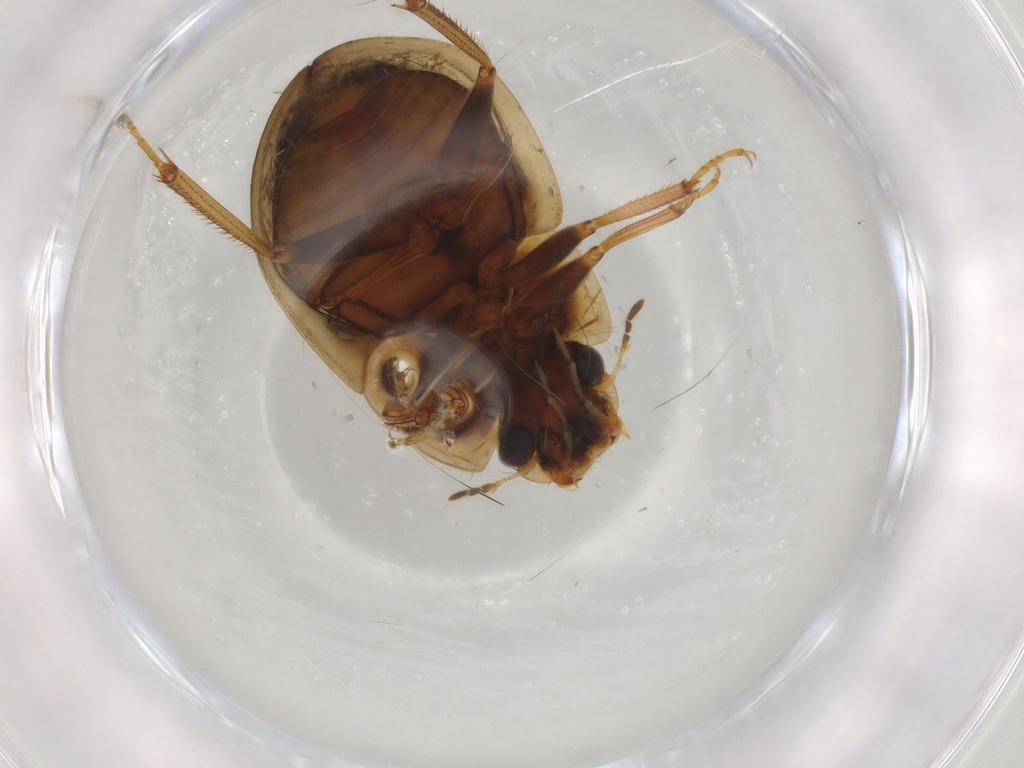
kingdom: Animalia
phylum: Arthropoda
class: Insecta
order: Coleoptera
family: Hydrophilidae
